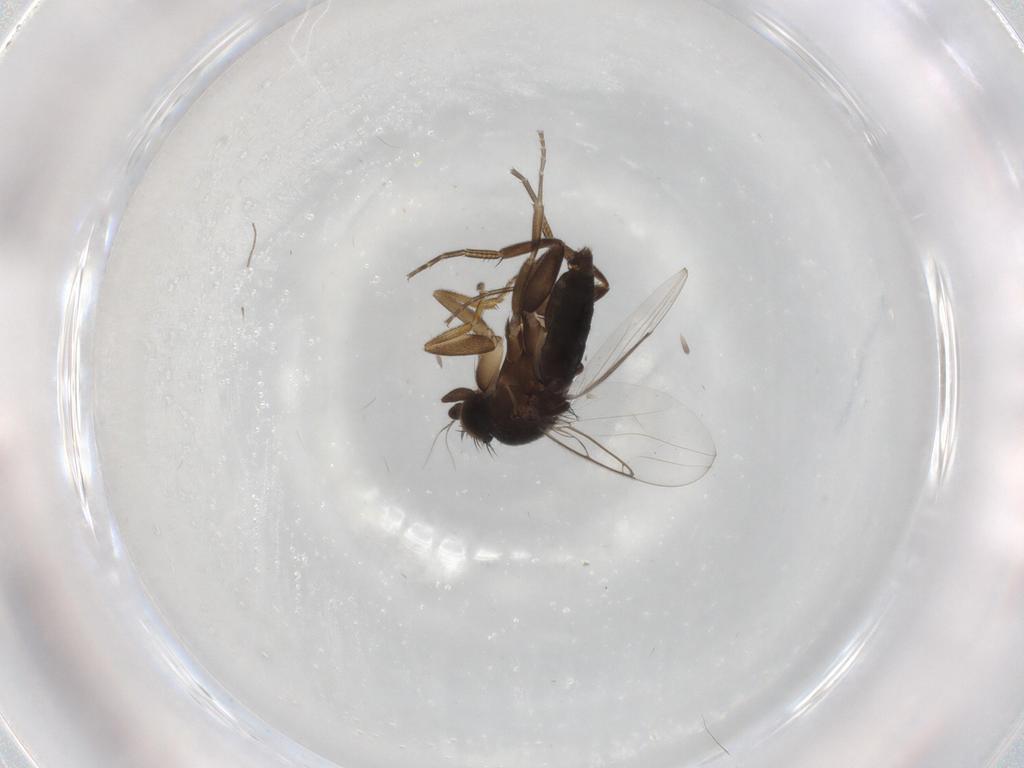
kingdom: Animalia
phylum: Arthropoda
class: Insecta
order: Diptera
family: Phoridae
